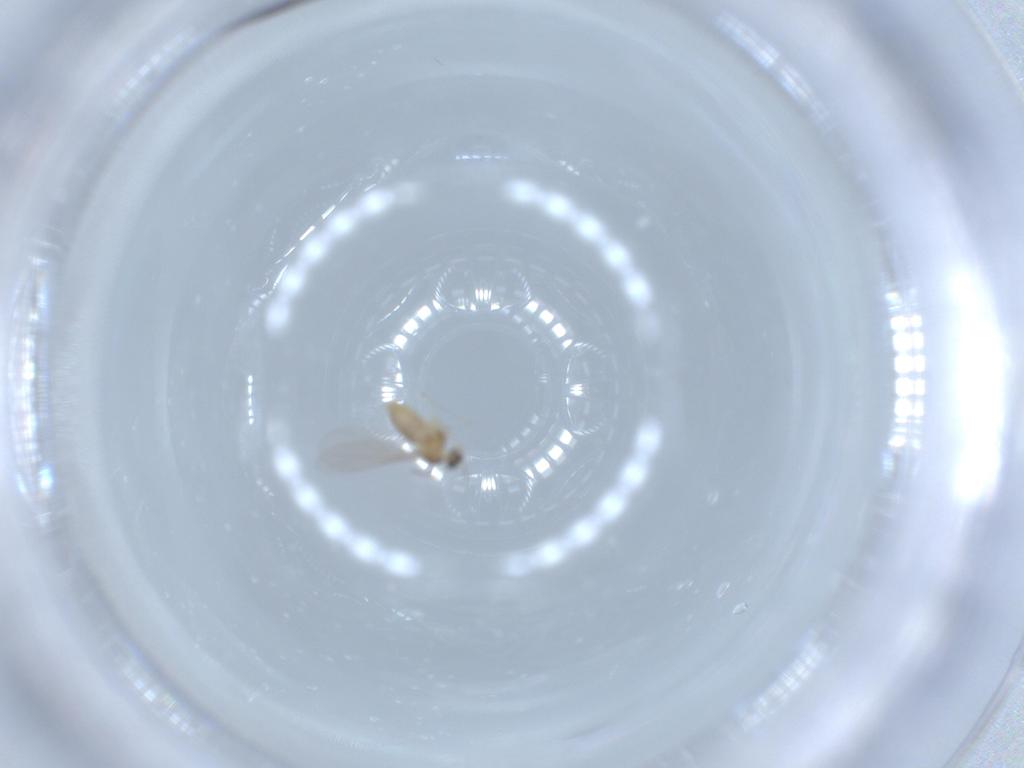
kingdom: Animalia
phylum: Arthropoda
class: Insecta
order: Diptera
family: Cecidomyiidae
